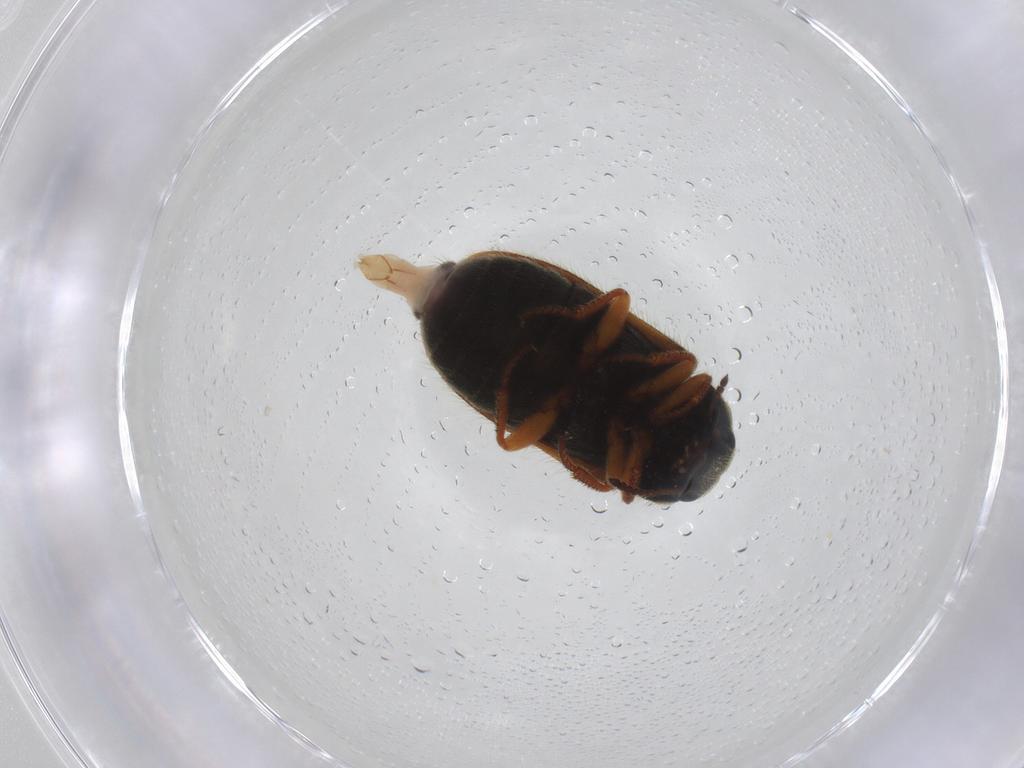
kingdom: Animalia
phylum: Arthropoda
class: Insecta
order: Coleoptera
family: Melyridae
